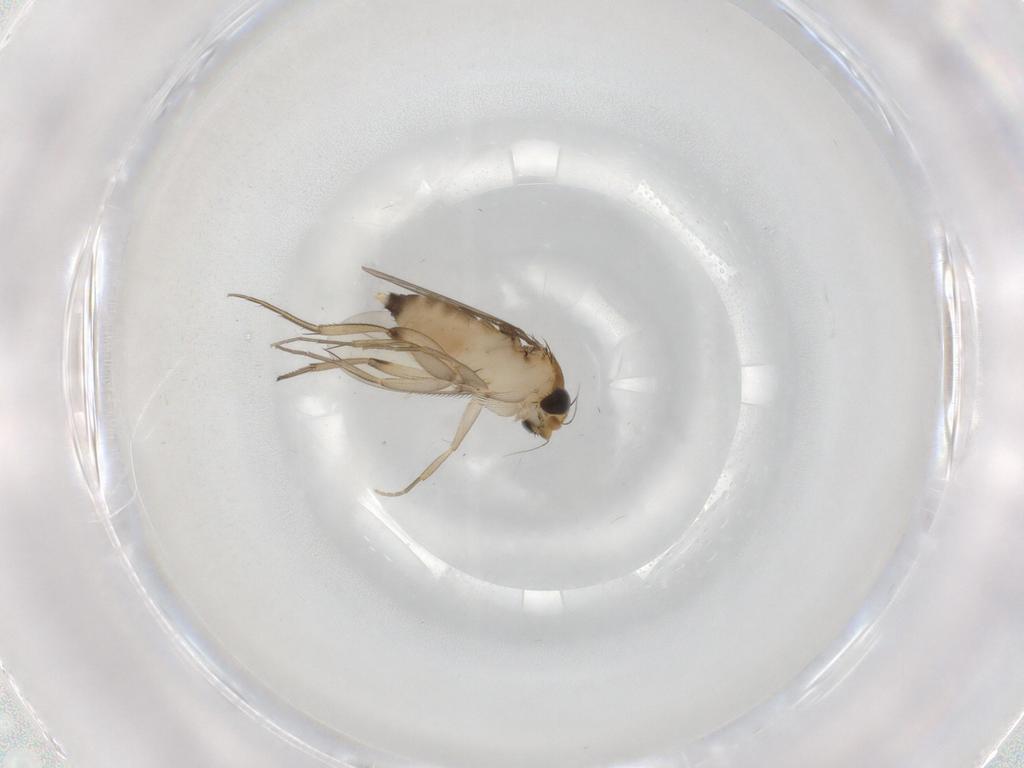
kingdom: Animalia
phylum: Arthropoda
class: Insecta
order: Diptera
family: Phoridae
